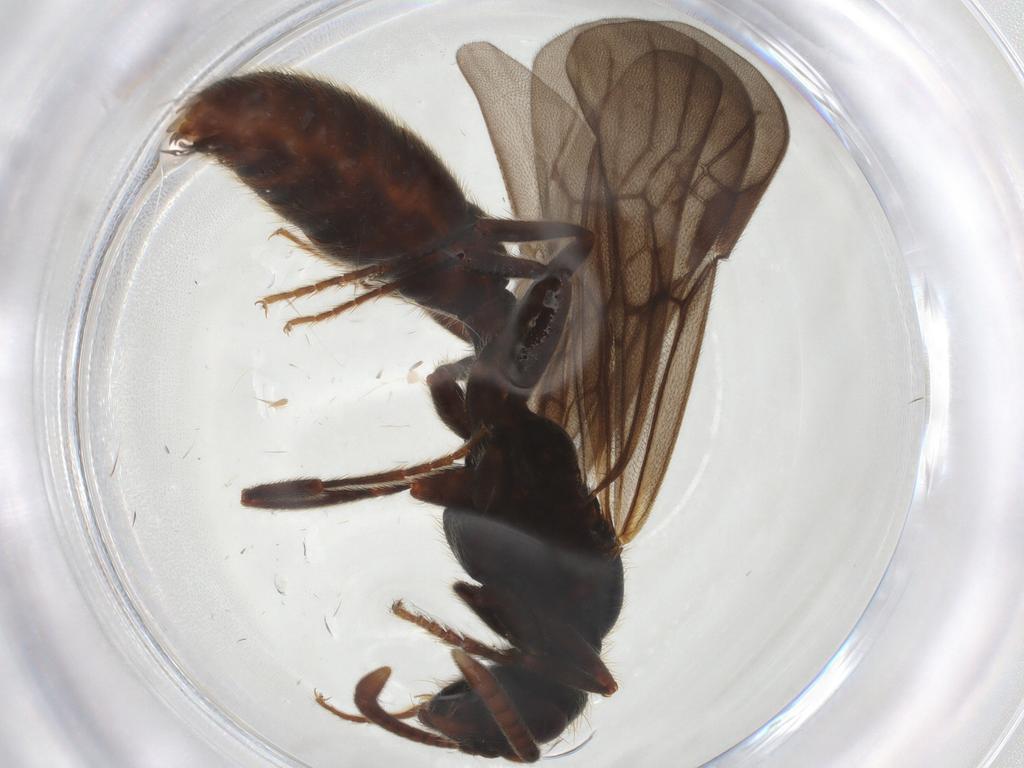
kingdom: Animalia
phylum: Arthropoda
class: Insecta
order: Hymenoptera
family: Formicidae
